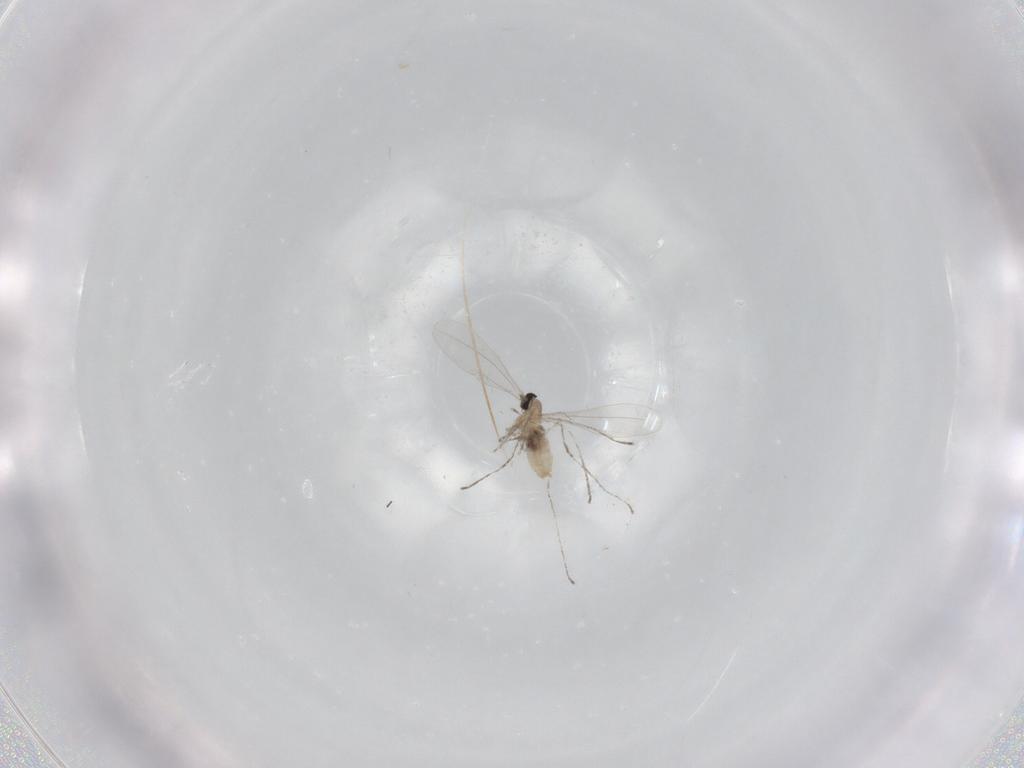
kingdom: Animalia
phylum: Arthropoda
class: Insecta
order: Diptera
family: Cecidomyiidae
